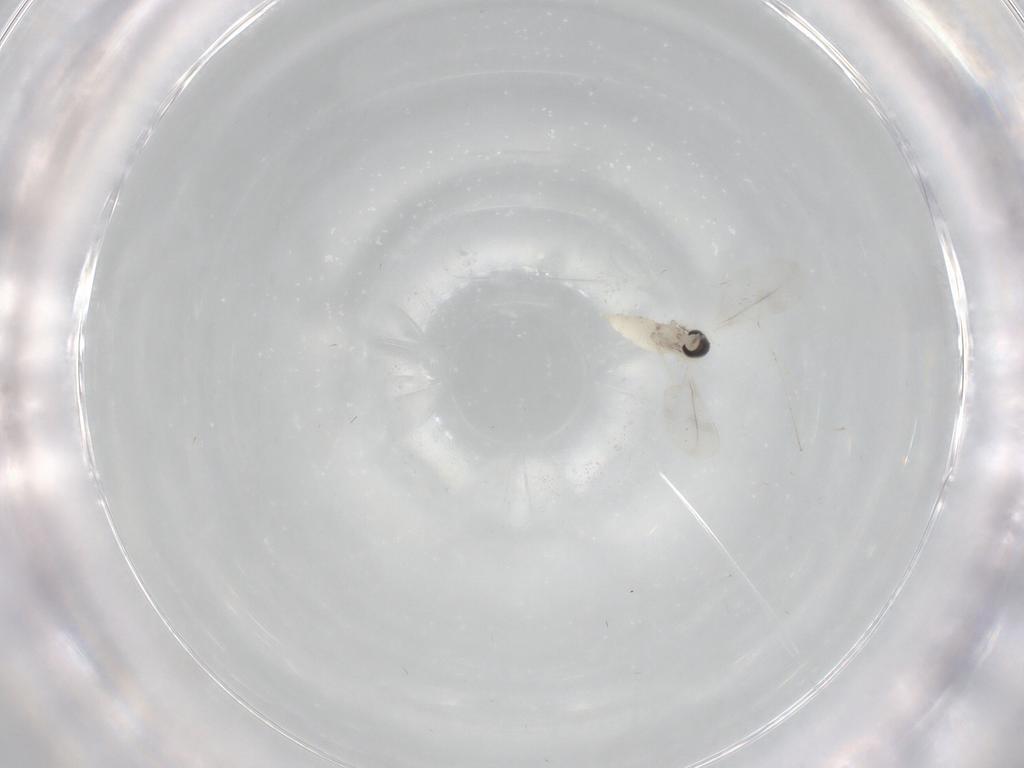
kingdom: Animalia
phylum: Arthropoda
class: Insecta
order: Diptera
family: Cecidomyiidae
